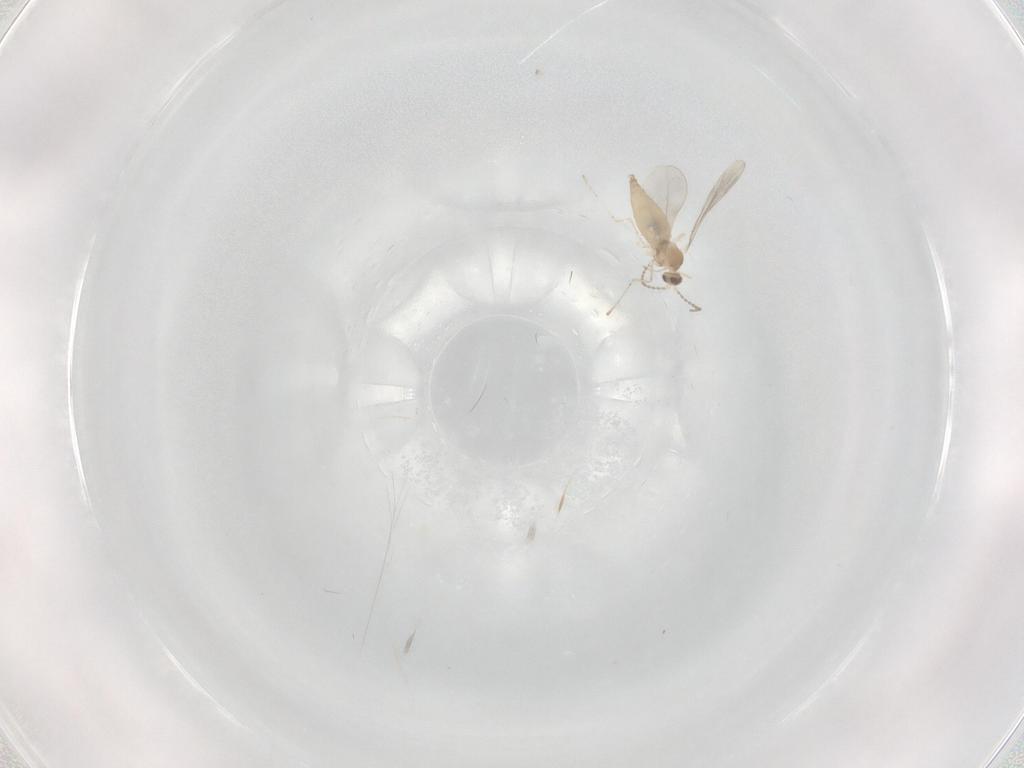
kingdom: Animalia
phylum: Arthropoda
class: Insecta
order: Diptera
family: Cecidomyiidae
